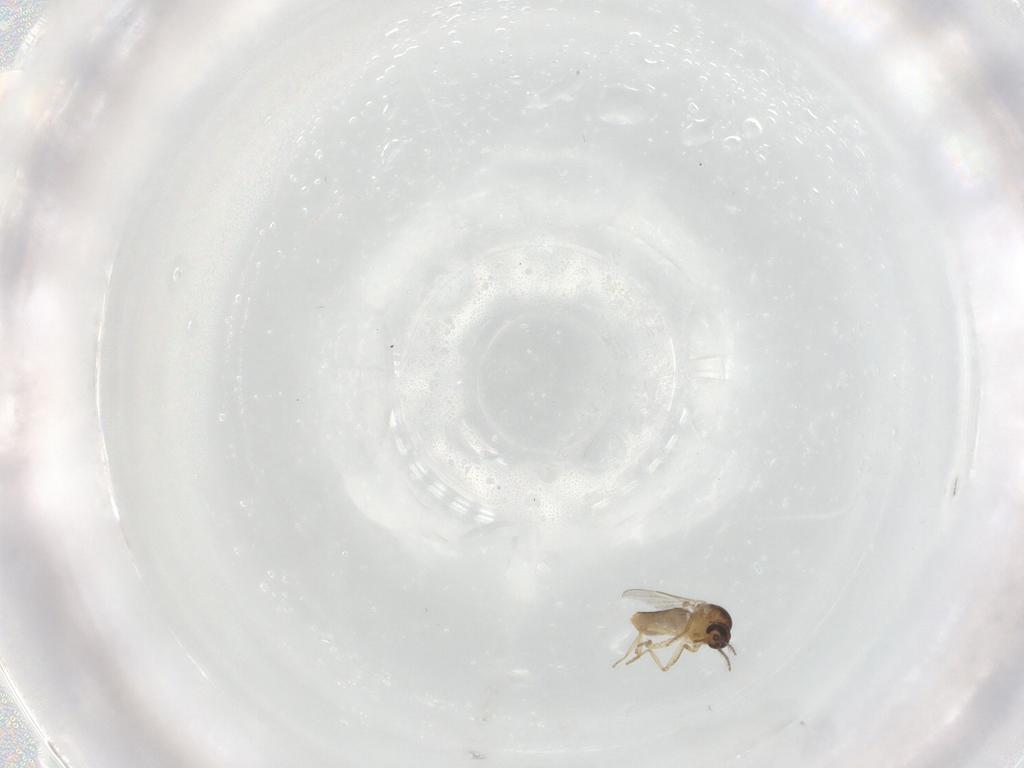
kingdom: Animalia
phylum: Arthropoda
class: Insecta
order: Diptera
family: Ceratopogonidae
